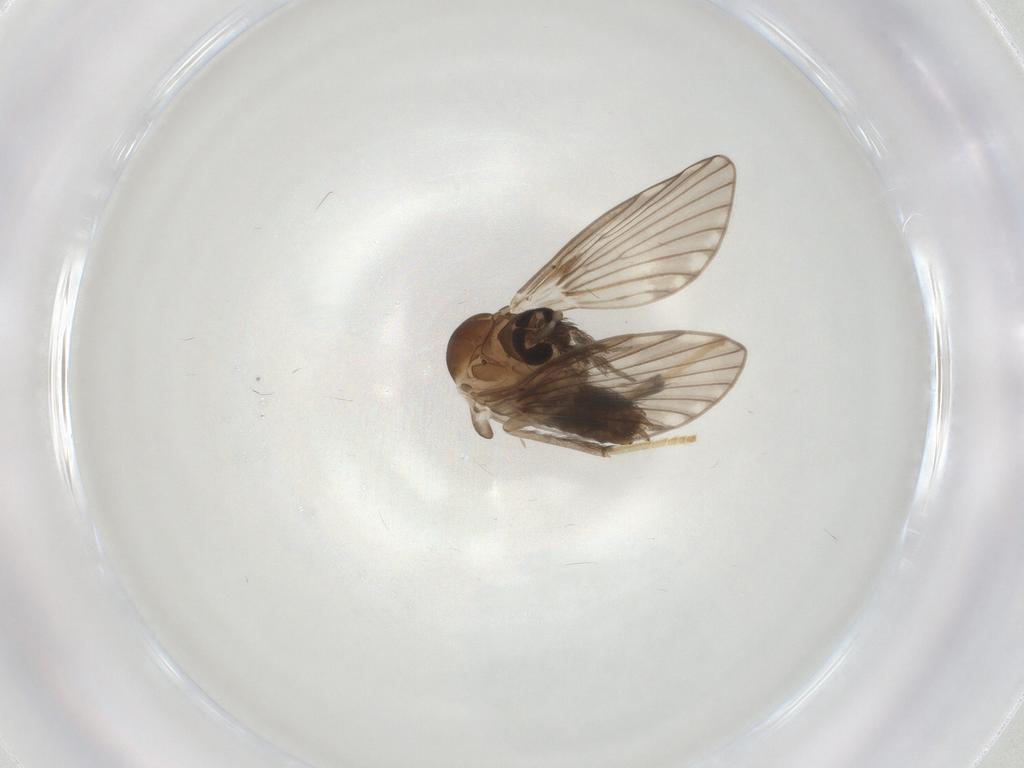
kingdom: Animalia
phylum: Arthropoda
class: Insecta
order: Diptera
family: Psychodidae
